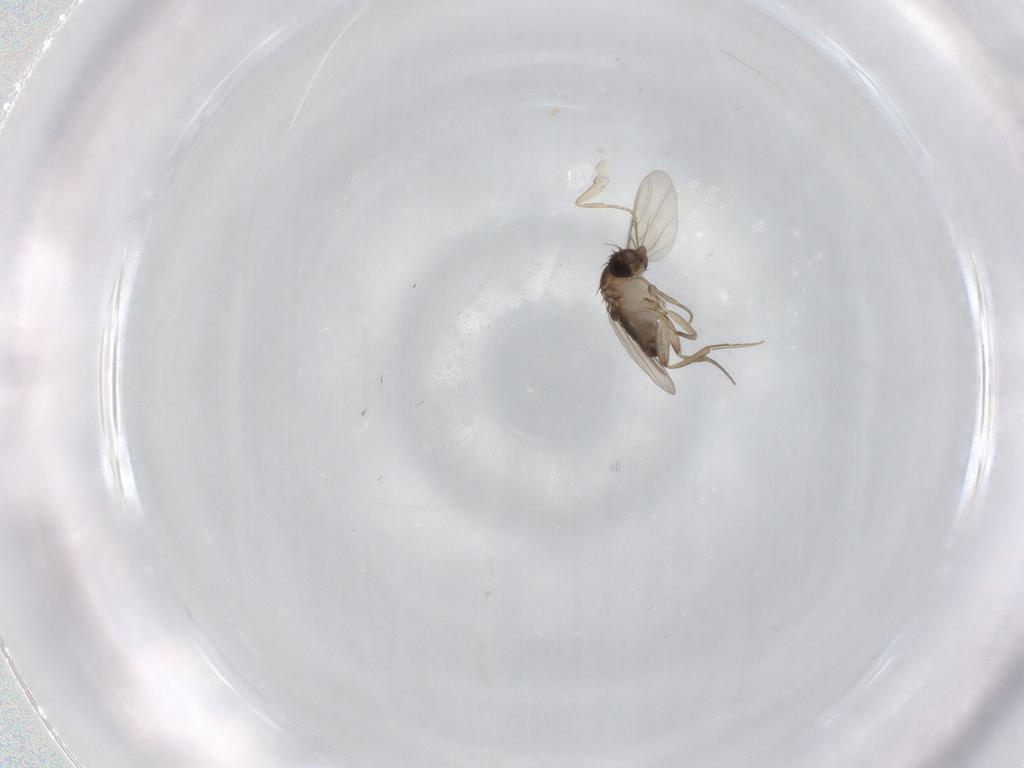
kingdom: Animalia
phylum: Arthropoda
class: Insecta
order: Diptera
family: Phoridae
